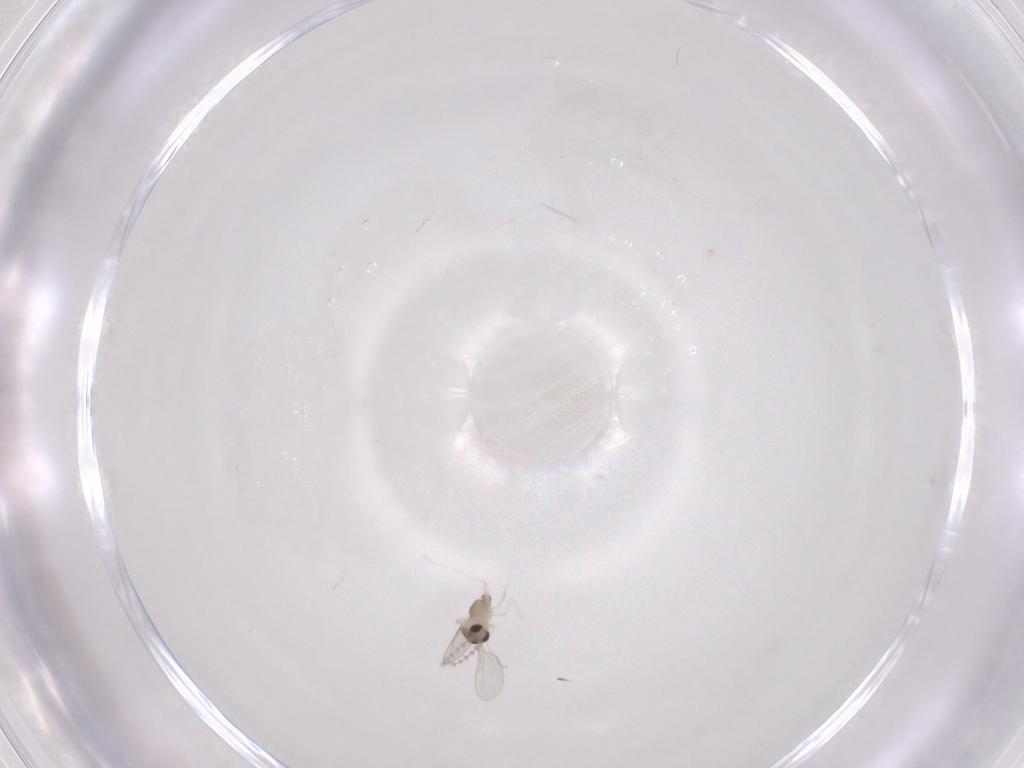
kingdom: Animalia
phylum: Arthropoda
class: Insecta
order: Diptera
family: Cecidomyiidae
